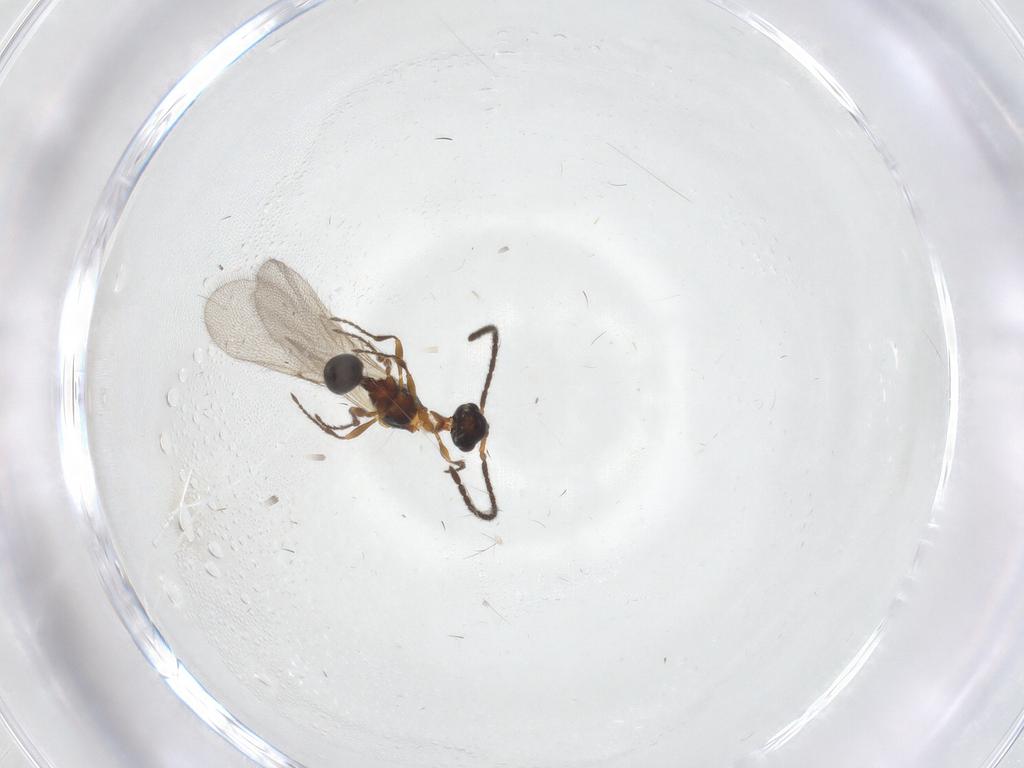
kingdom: Animalia
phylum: Arthropoda
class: Insecta
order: Hymenoptera
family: Diapriidae
